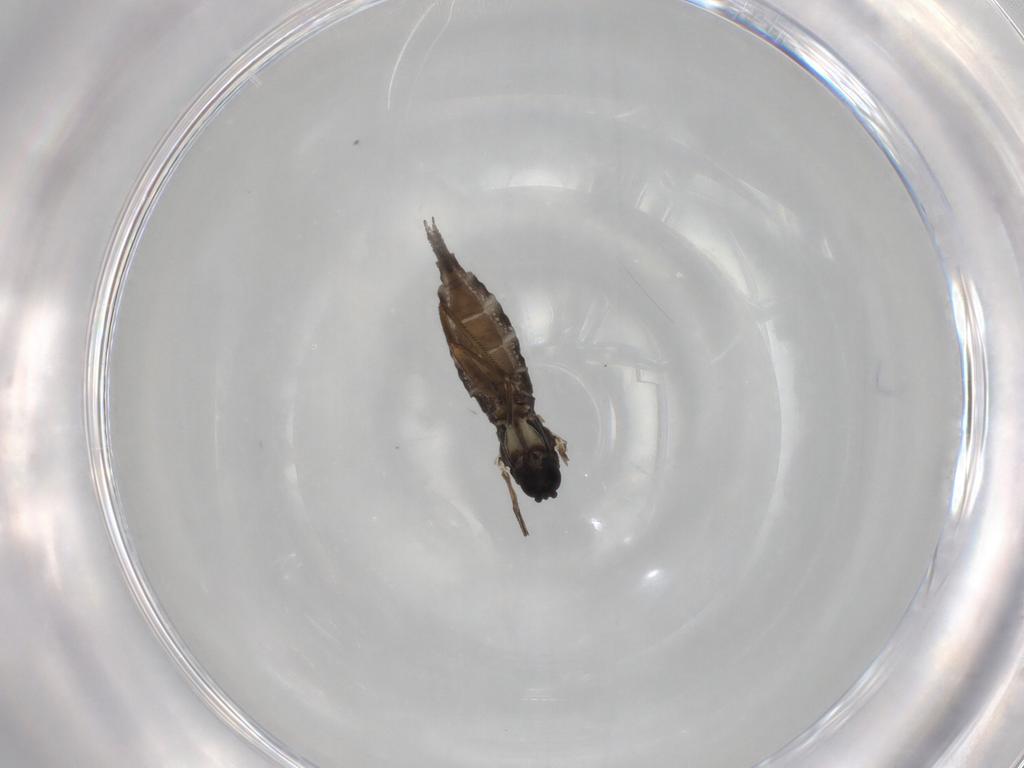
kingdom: Animalia
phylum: Arthropoda
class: Insecta
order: Diptera
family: Sciaridae
